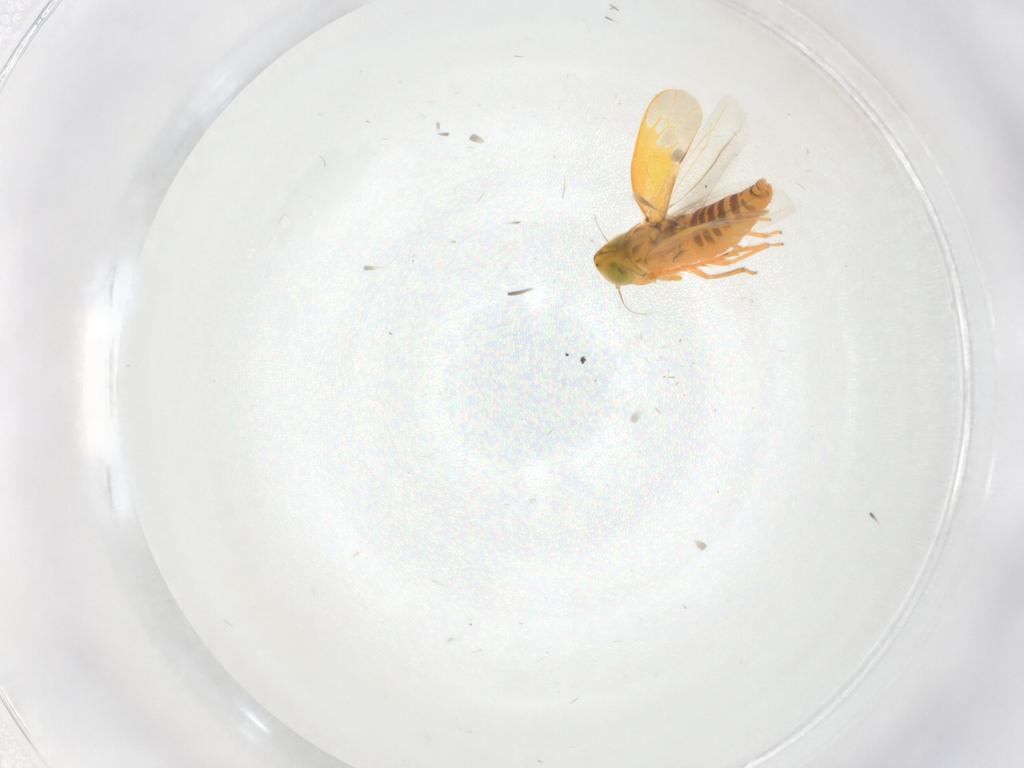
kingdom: Animalia
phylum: Arthropoda
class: Insecta
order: Hemiptera
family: Cicadellidae
